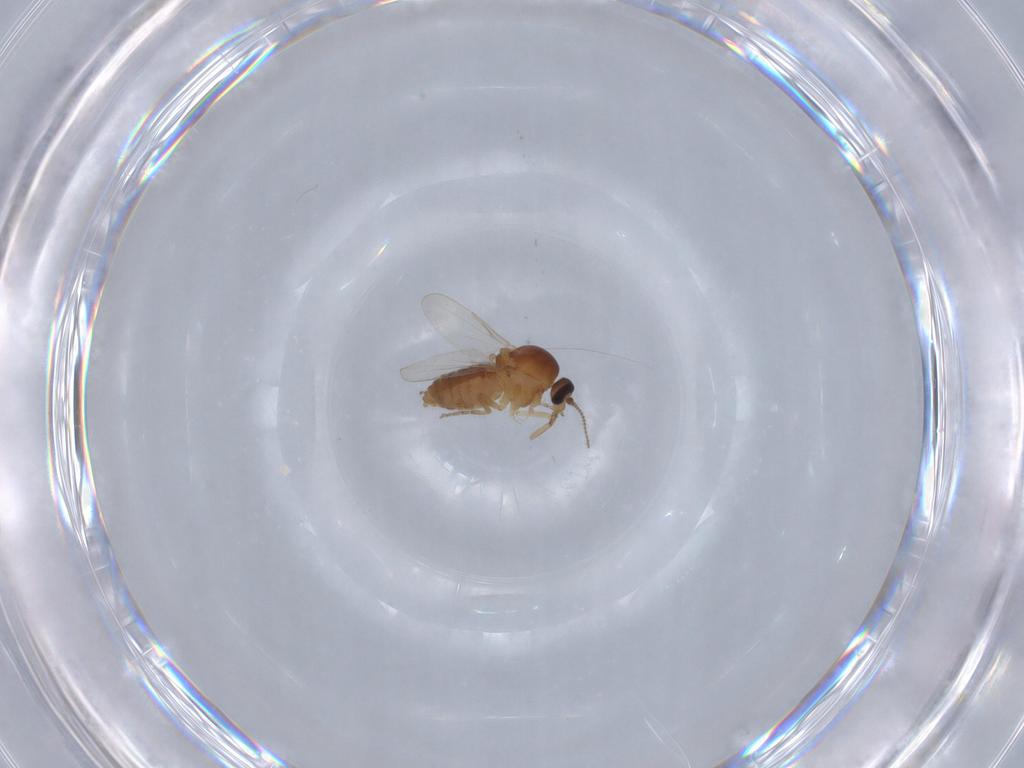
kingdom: Animalia
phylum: Arthropoda
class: Insecta
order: Diptera
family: Ceratopogonidae
